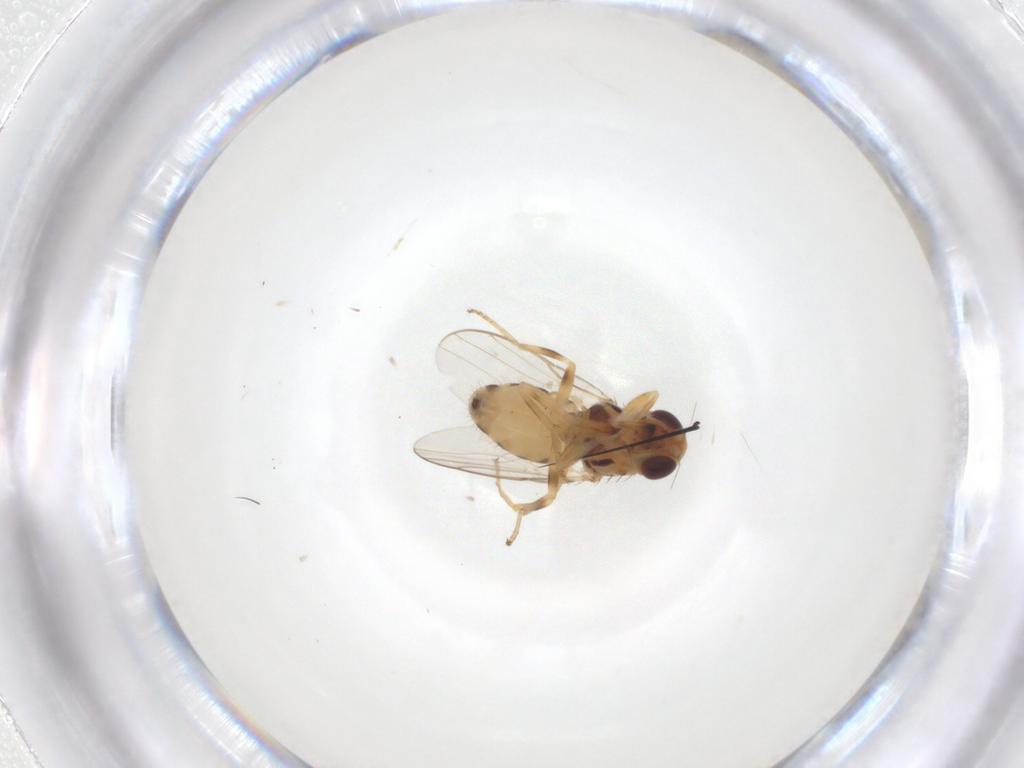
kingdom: Animalia
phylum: Arthropoda
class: Insecta
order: Diptera
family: Chloropidae
